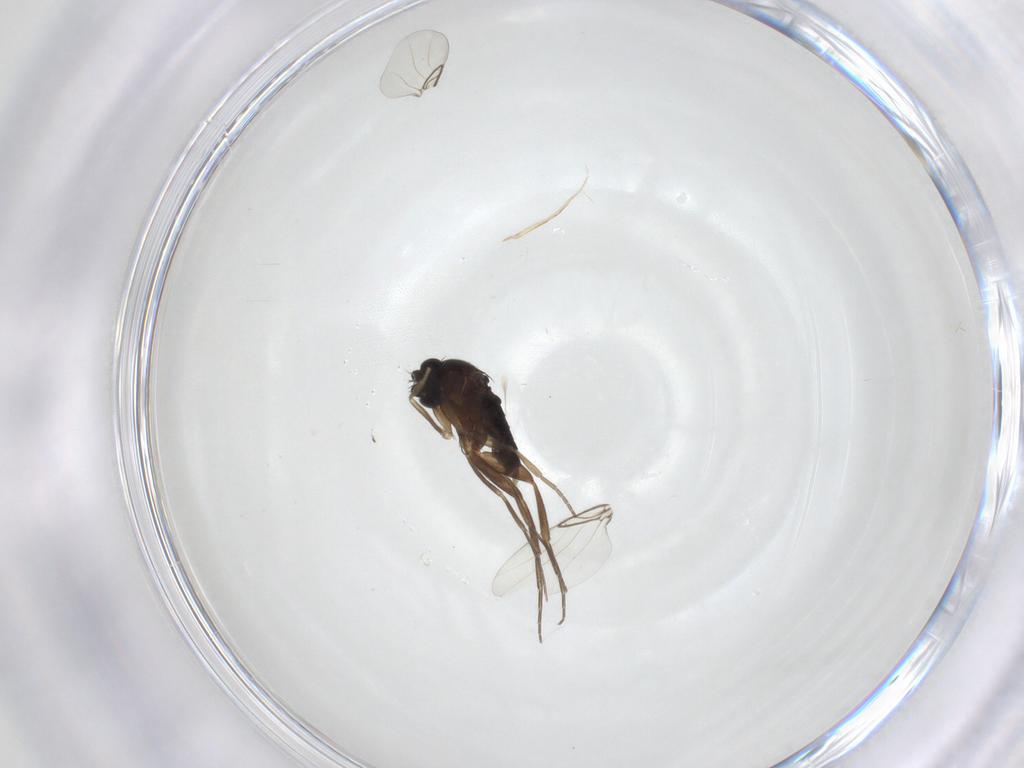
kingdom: Animalia
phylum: Arthropoda
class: Insecta
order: Diptera
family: Phoridae
